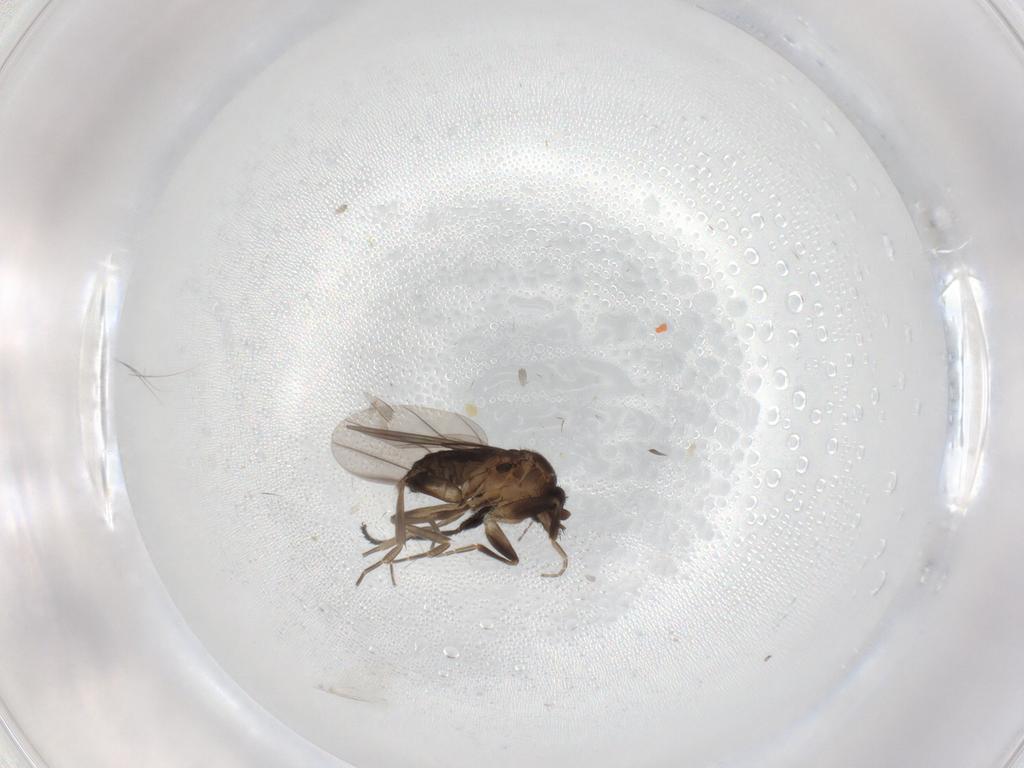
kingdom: Animalia
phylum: Arthropoda
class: Insecta
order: Diptera
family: Milichiidae
